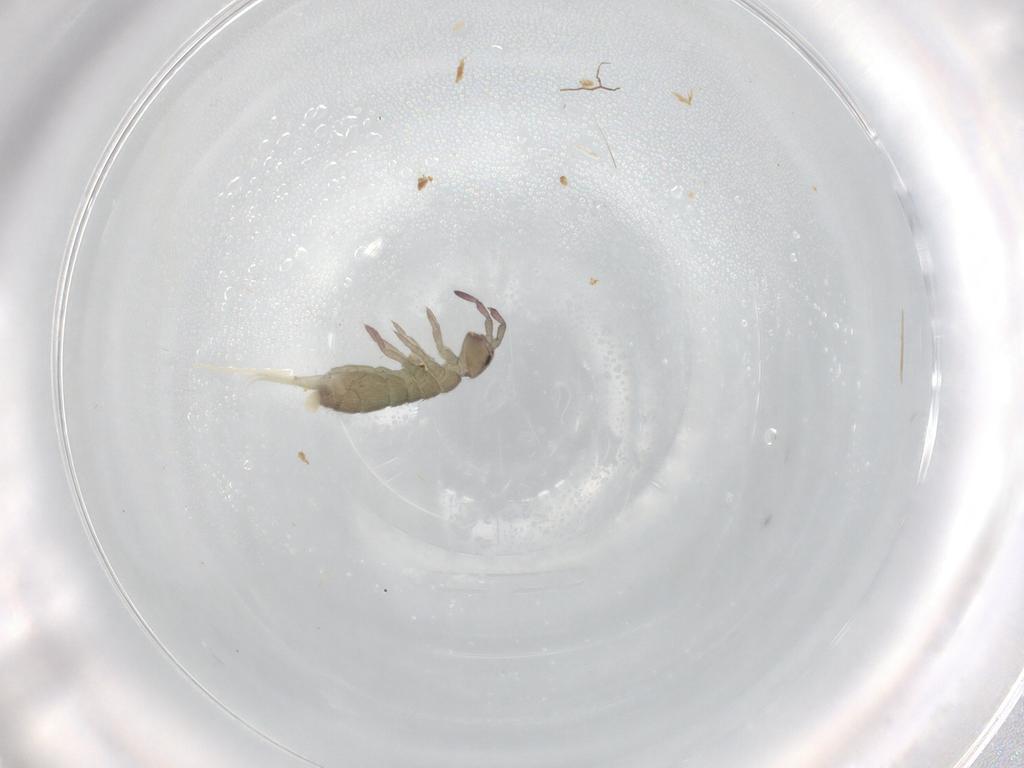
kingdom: Animalia
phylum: Arthropoda
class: Collembola
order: Entomobryomorpha
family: Isotomidae
